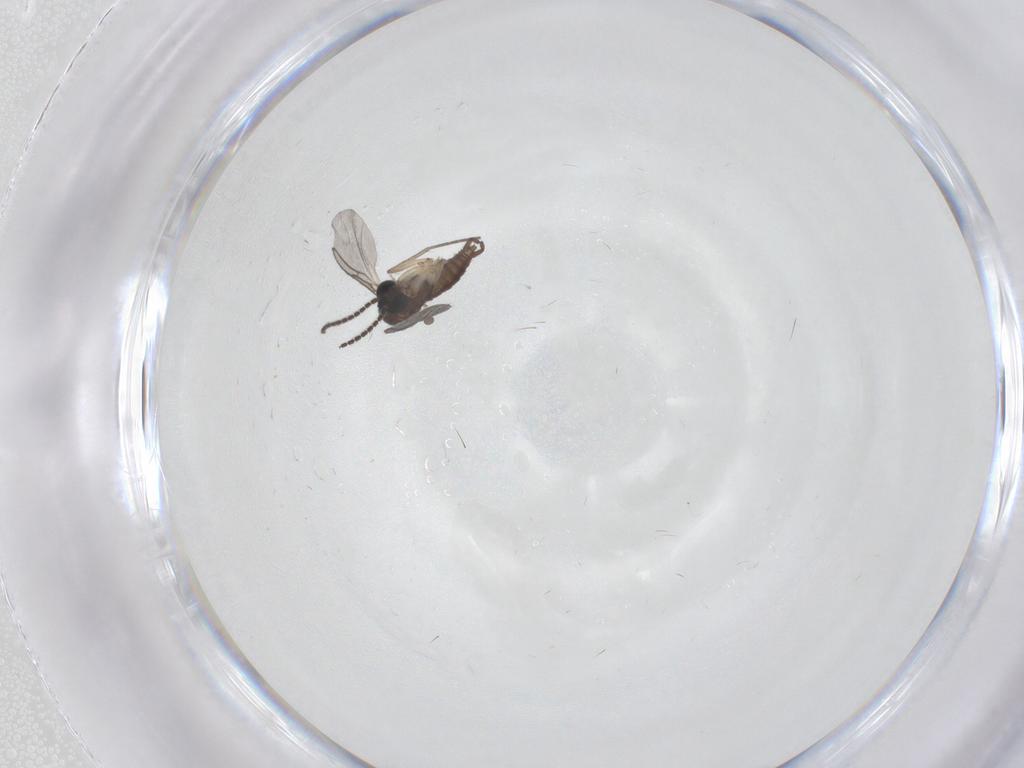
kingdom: Animalia
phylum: Arthropoda
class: Insecta
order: Diptera
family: Sciaridae
